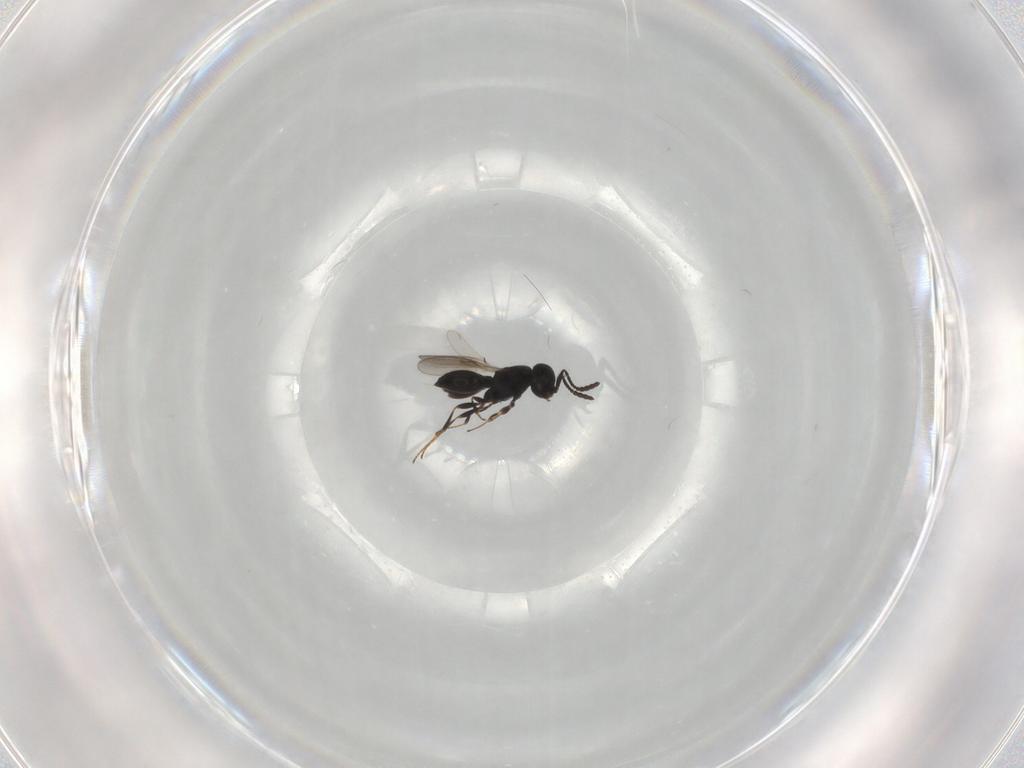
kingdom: Animalia
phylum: Arthropoda
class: Insecta
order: Hymenoptera
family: Scelionidae
